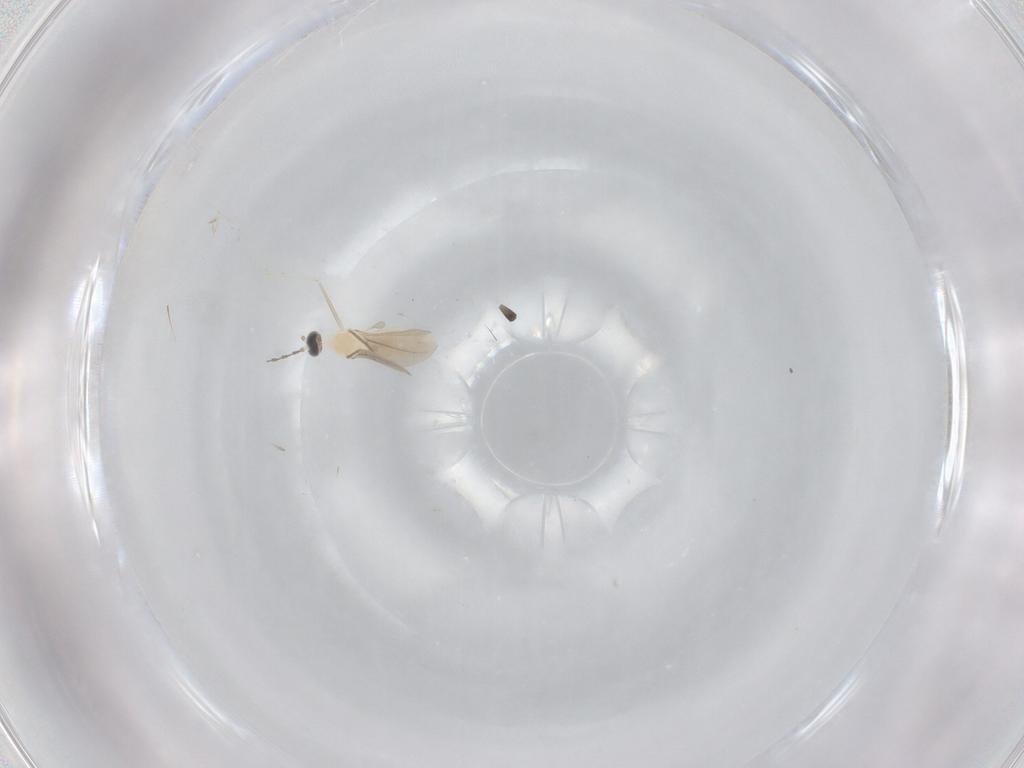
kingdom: Animalia
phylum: Arthropoda
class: Insecta
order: Diptera
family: Cecidomyiidae
